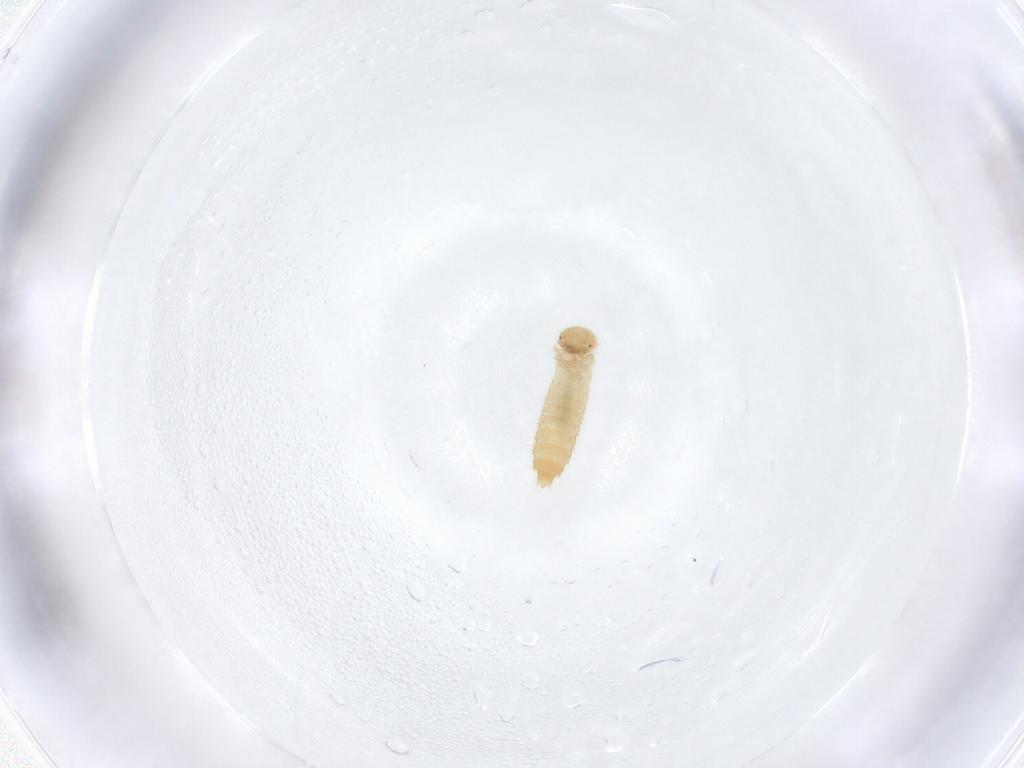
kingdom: Animalia
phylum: Arthropoda
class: Insecta
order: Coleoptera
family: Staphylinidae
